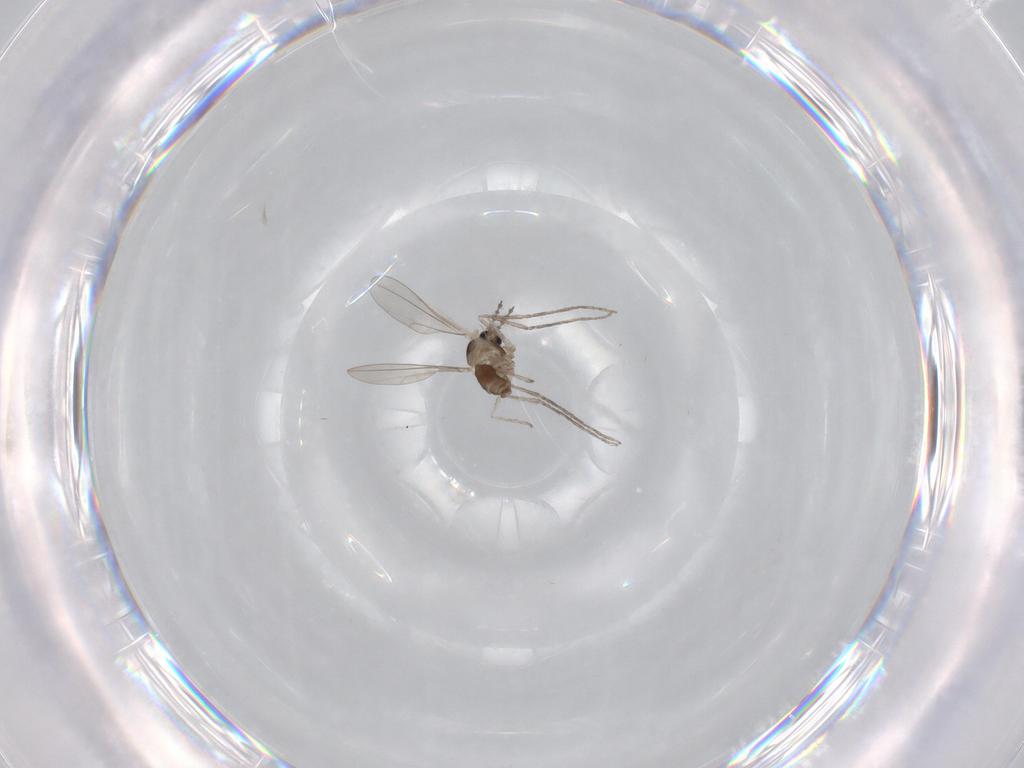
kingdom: Animalia
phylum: Arthropoda
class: Insecta
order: Diptera
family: Cecidomyiidae
